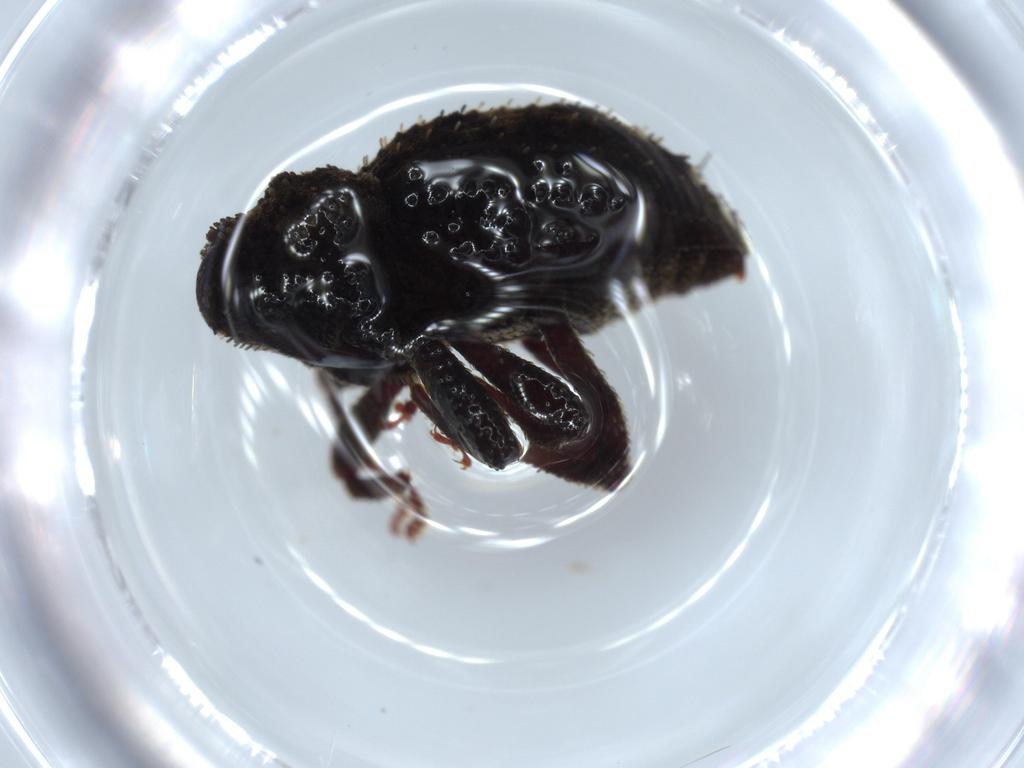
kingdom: Animalia
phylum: Arthropoda
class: Insecta
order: Coleoptera
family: Curculionidae
